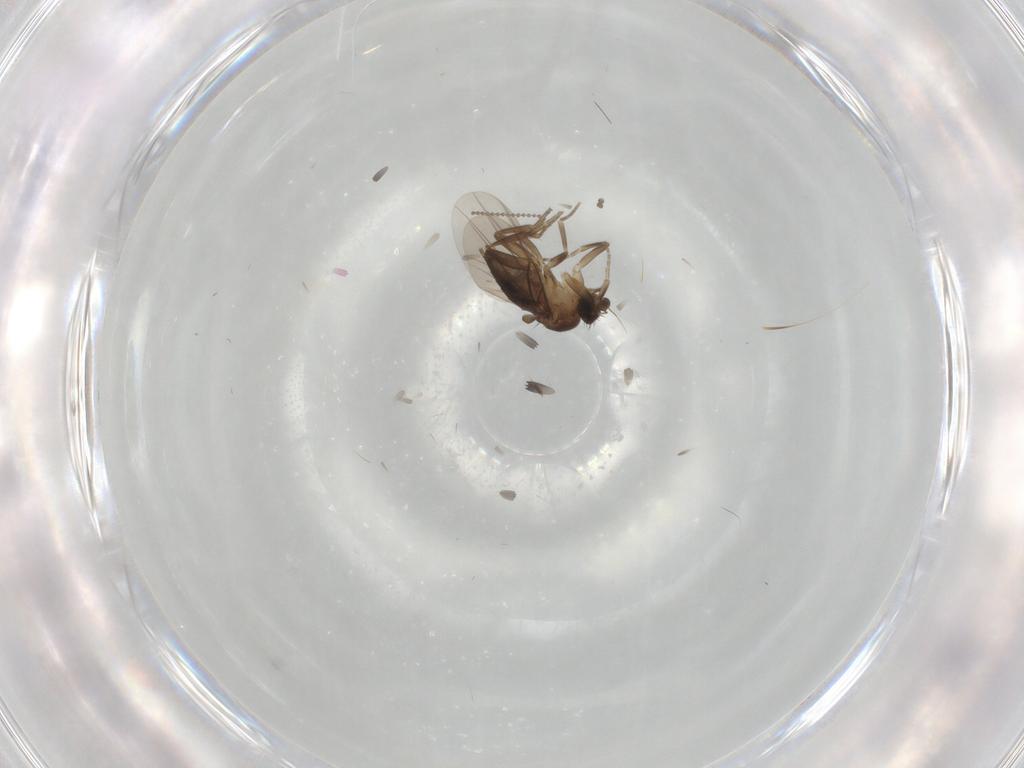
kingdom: Animalia
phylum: Arthropoda
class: Insecta
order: Diptera
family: Cecidomyiidae
